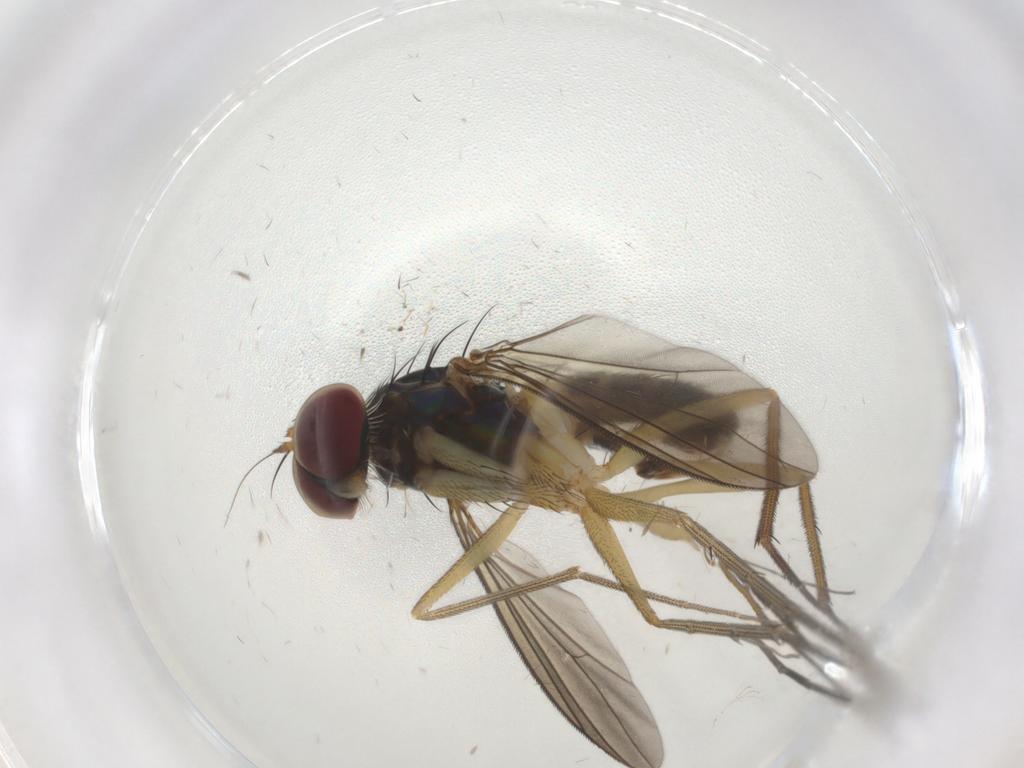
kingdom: Animalia
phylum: Arthropoda
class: Insecta
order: Diptera
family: Dolichopodidae
